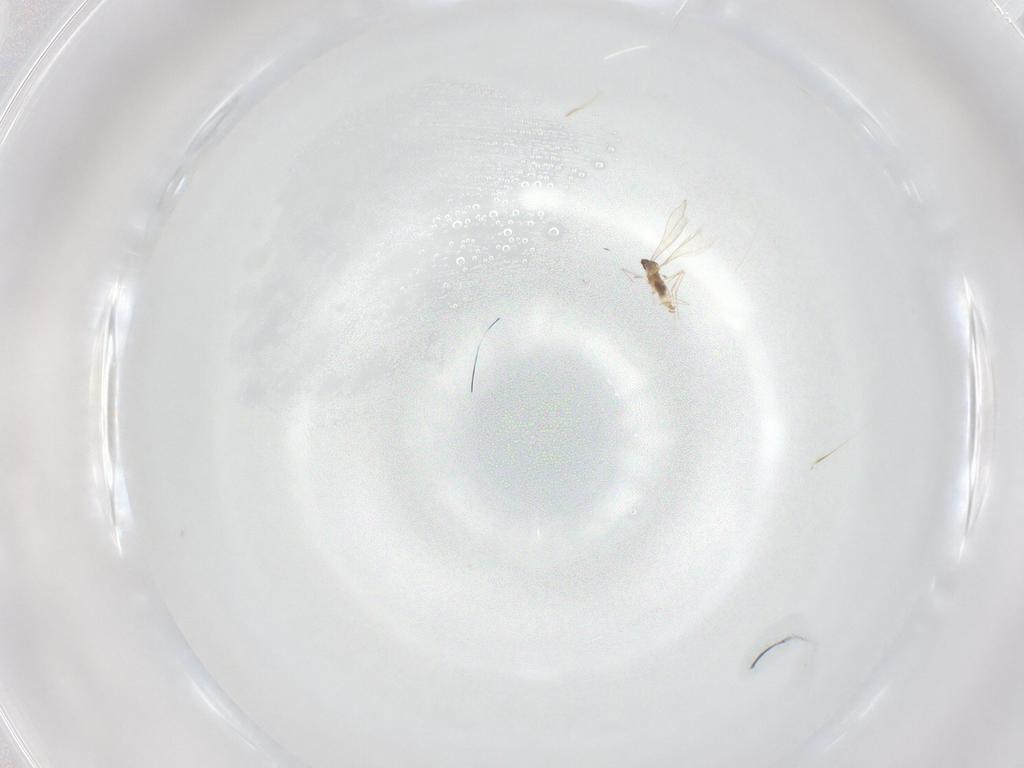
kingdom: Animalia
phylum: Arthropoda
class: Insecta
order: Diptera
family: Cecidomyiidae
